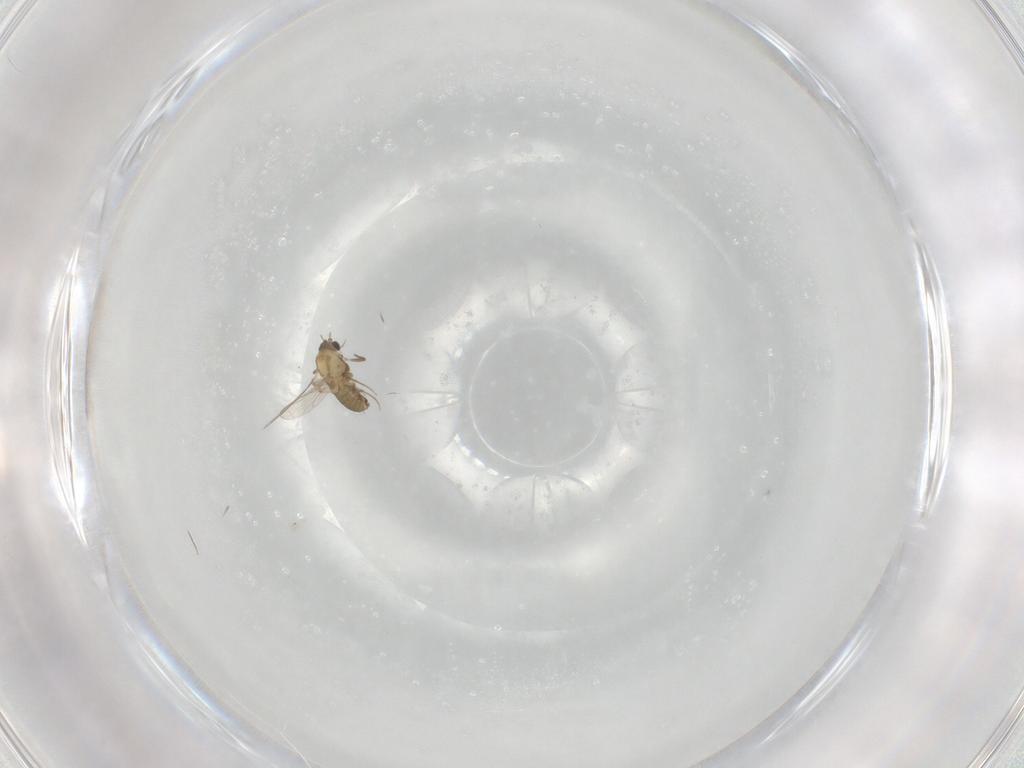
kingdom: Animalia
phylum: Arthropoda
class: Insecta
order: Diptera
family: Chironomidae
